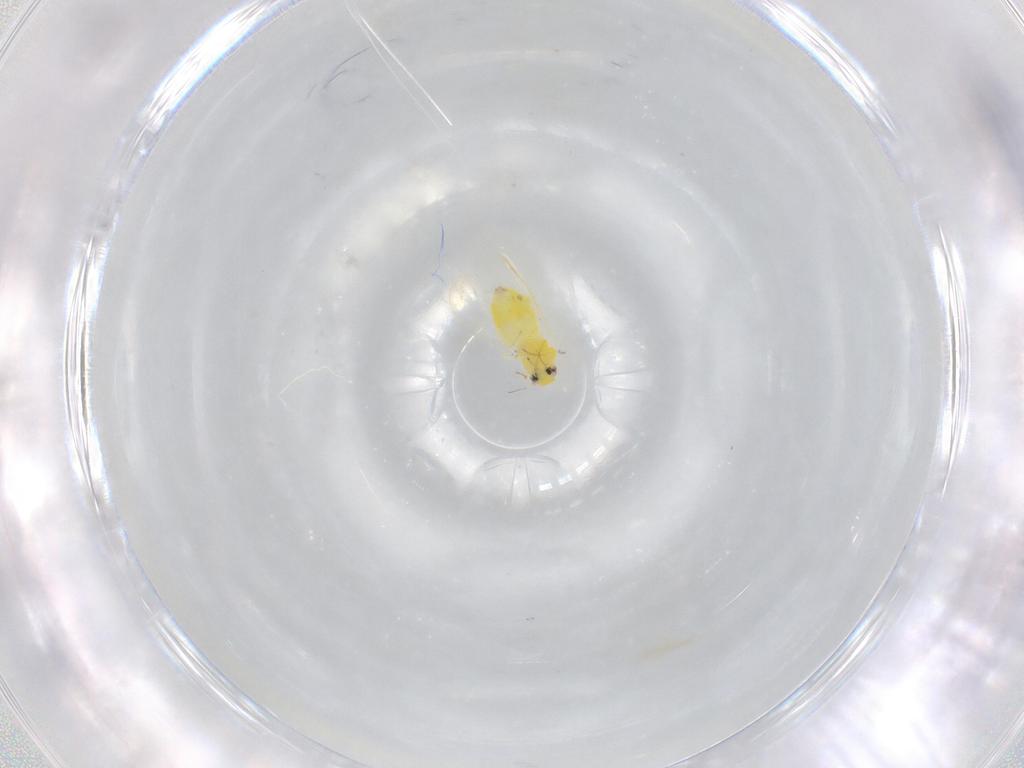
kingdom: Animalia
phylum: Arthropoda
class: Insecta
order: Hemiptera
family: Aleyrodidae
